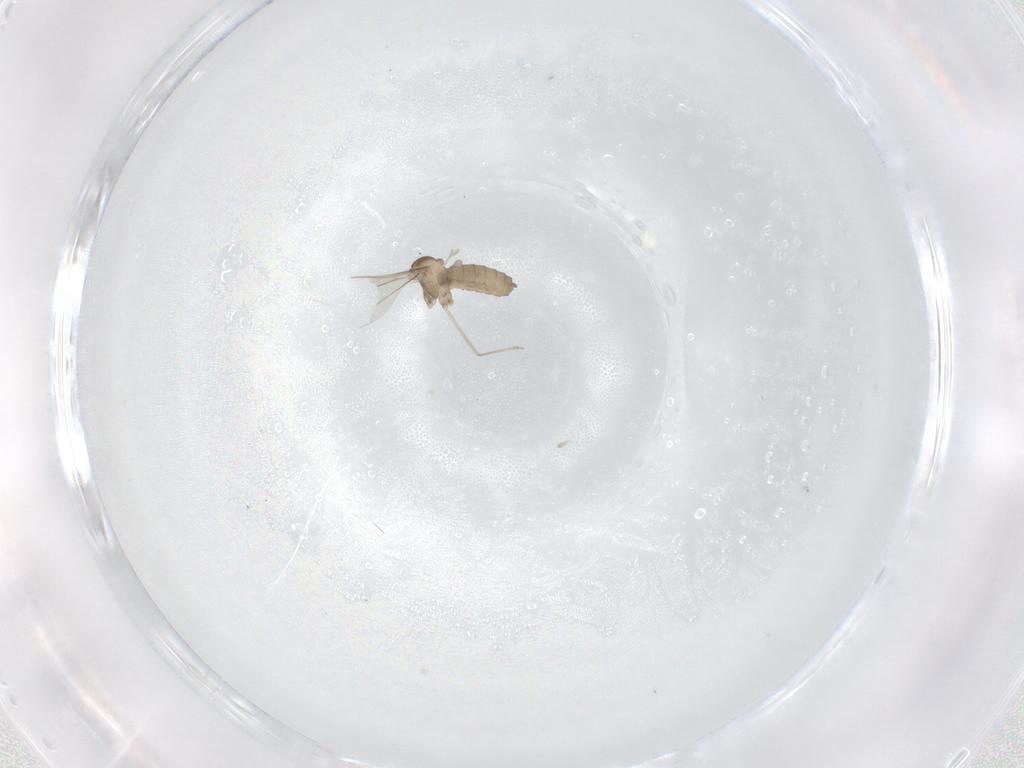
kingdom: Animalia
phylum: Arthropoda
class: Insecta
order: Diptera
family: Cecidomyiidae
